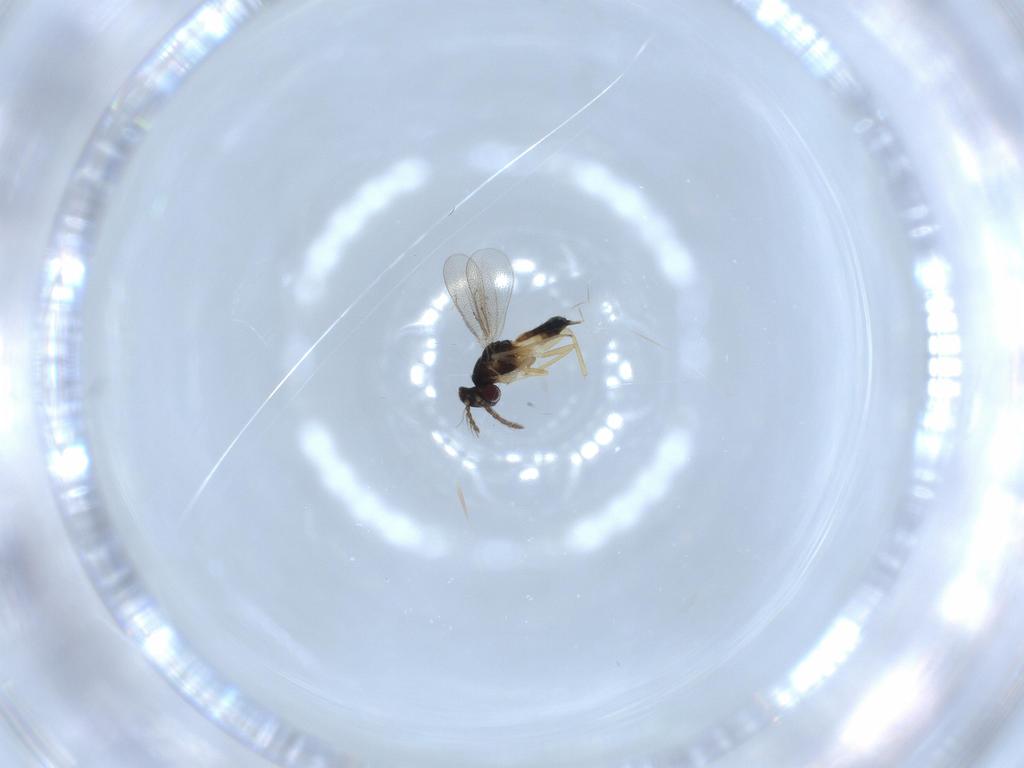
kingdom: Animalia
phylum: Arthropoda
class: Insecta
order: Hymenoptera
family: Eulophidae
